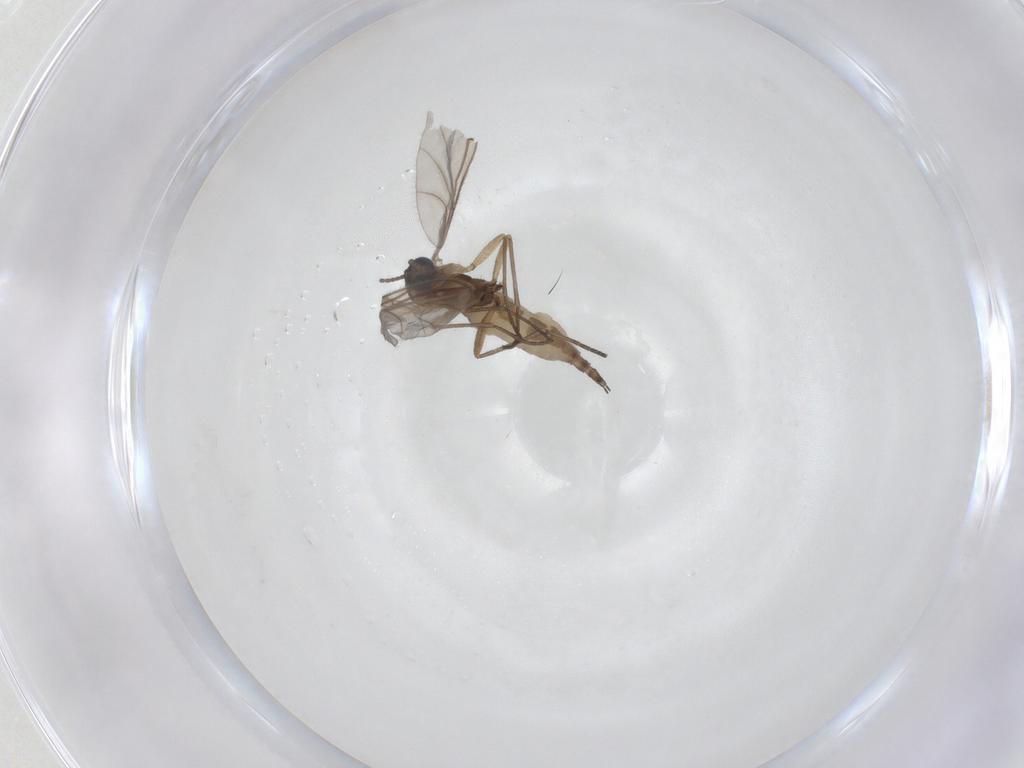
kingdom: Animalia
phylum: Arthropoda
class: Insecta
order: Diptera
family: Sciaridae
